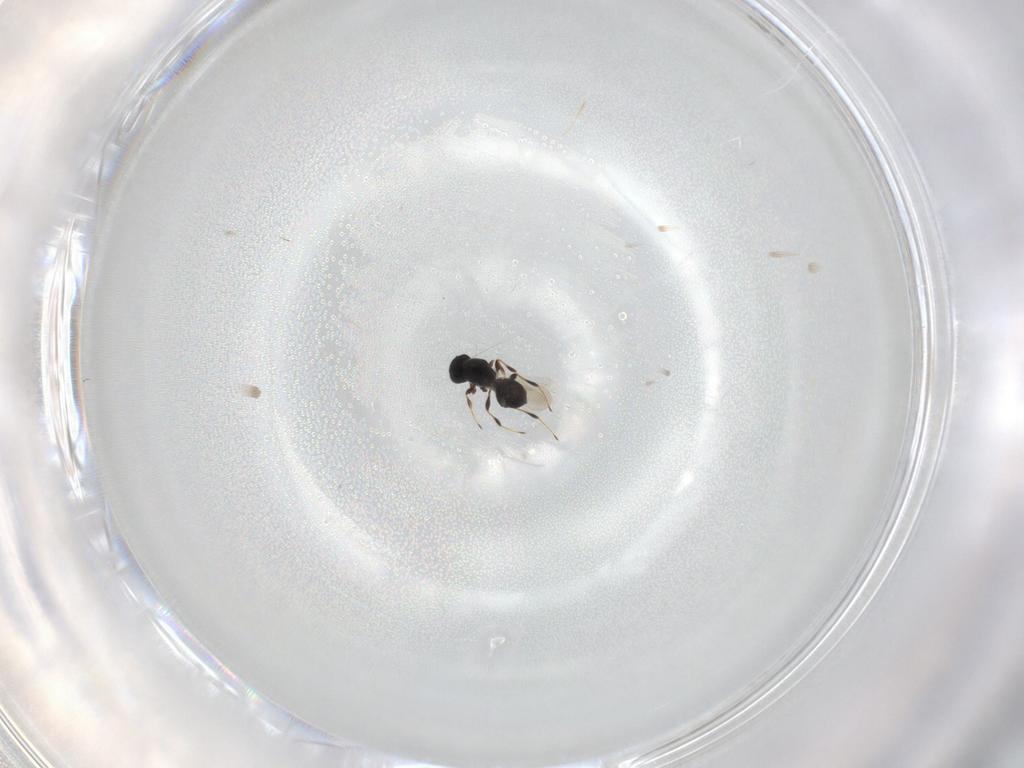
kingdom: Animalia
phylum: Arthropoda
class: Insecta
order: Hymenoptera
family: Platygastridae
